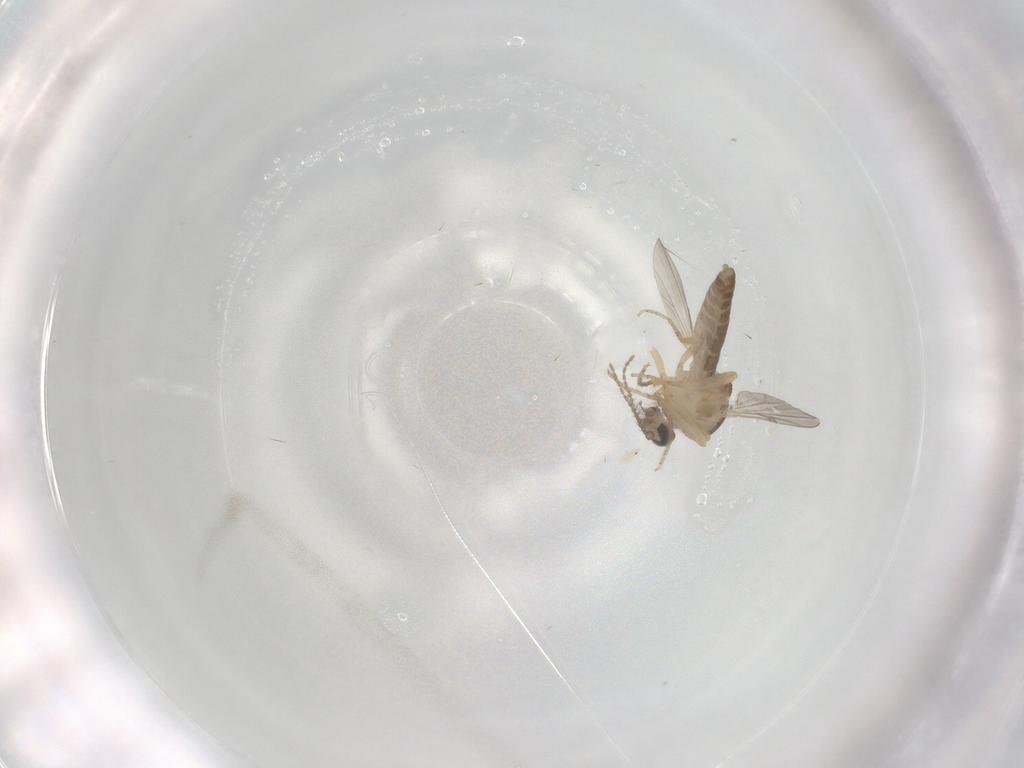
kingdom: Animalia
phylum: Arthropoda
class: Insecta
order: Diptera
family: Ceratopogonidae
